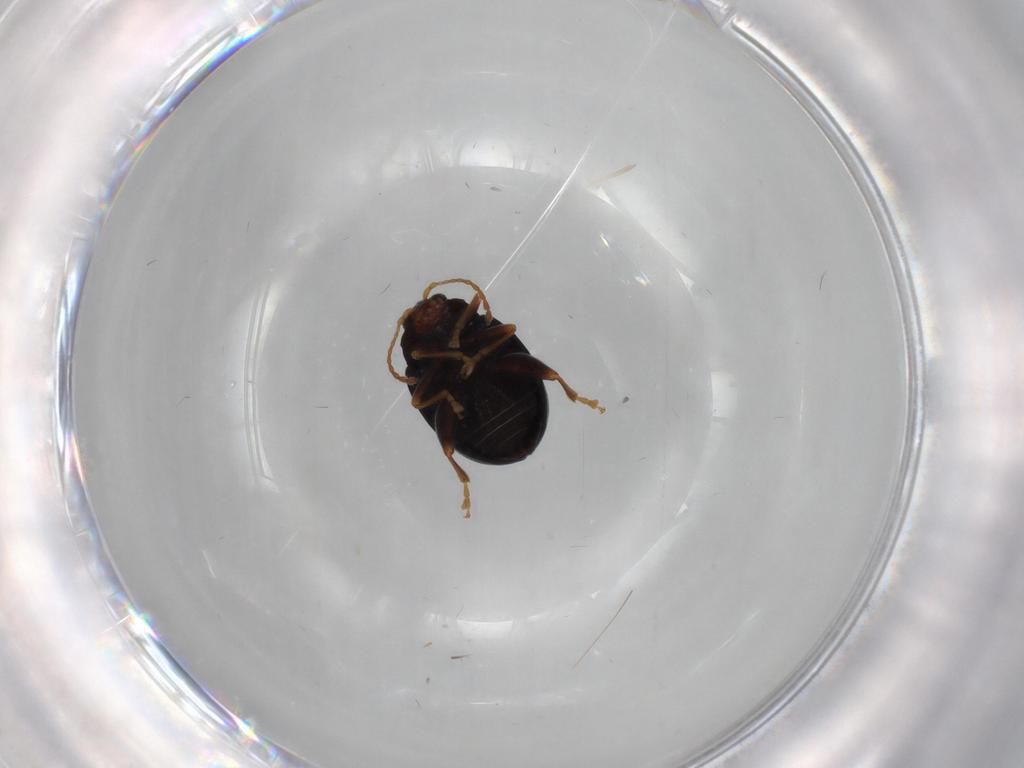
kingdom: Animalia
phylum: Arthropoda
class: Insecta
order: Coleoptera
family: Chrysomelidae
